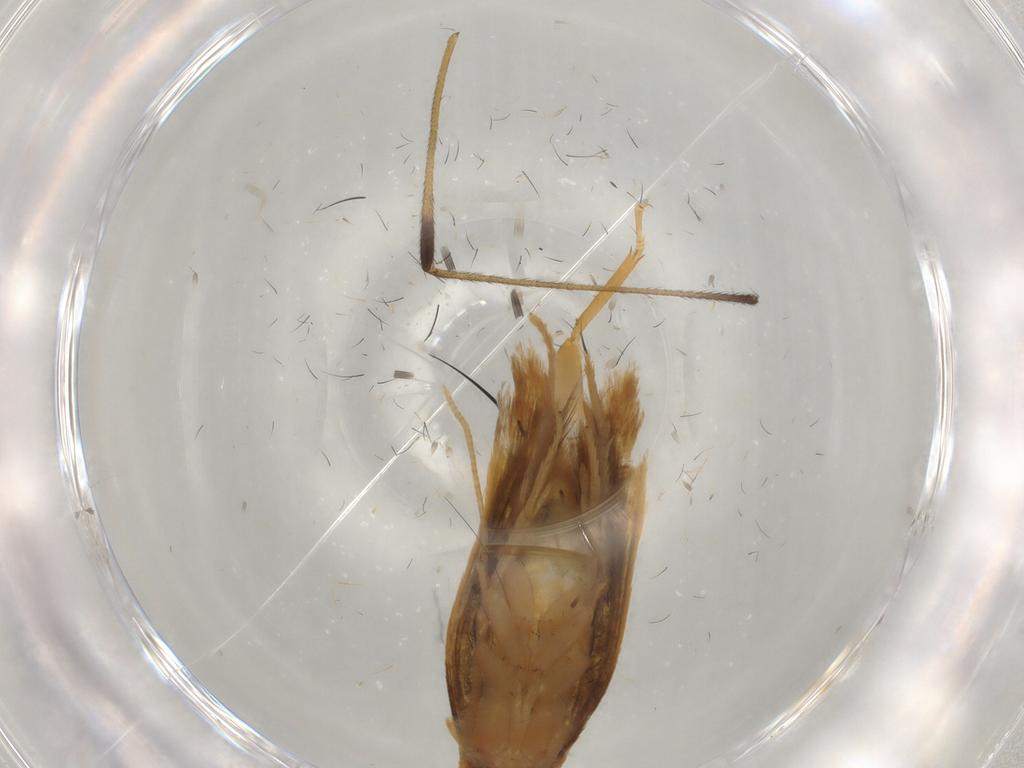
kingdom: Animalia
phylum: Arthropoda
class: Insecta
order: Lepidoptera
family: Tineidae
